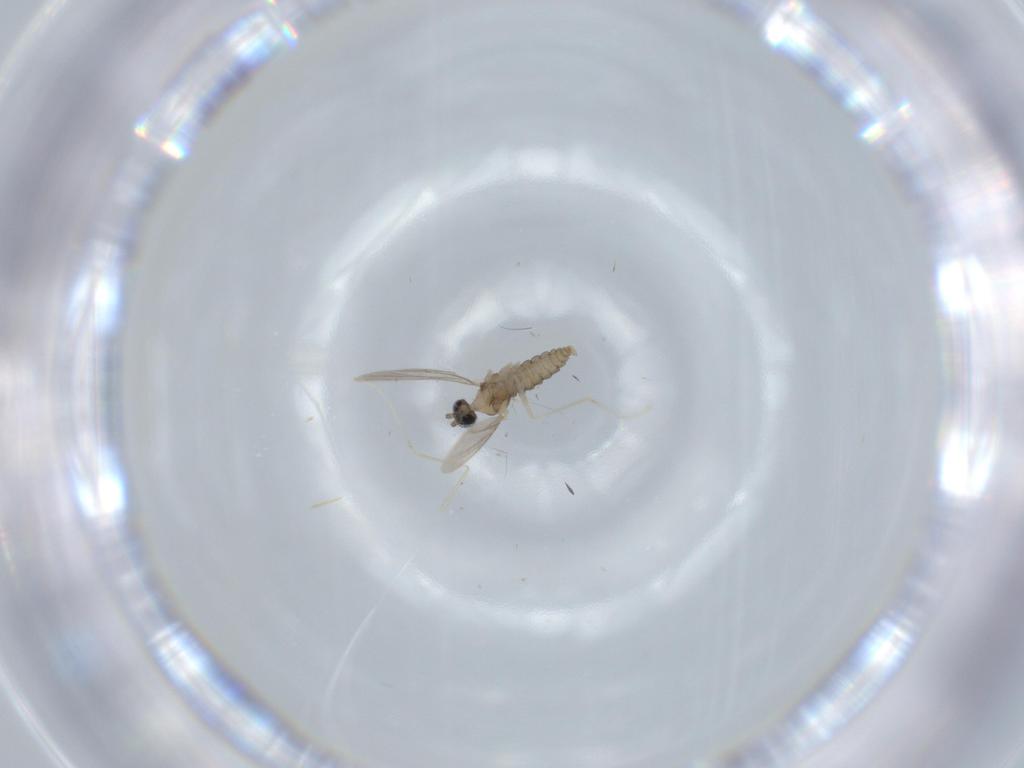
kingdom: Animalia
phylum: Arthropoda
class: Insecta
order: Diptera
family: Cecidomyiidae
